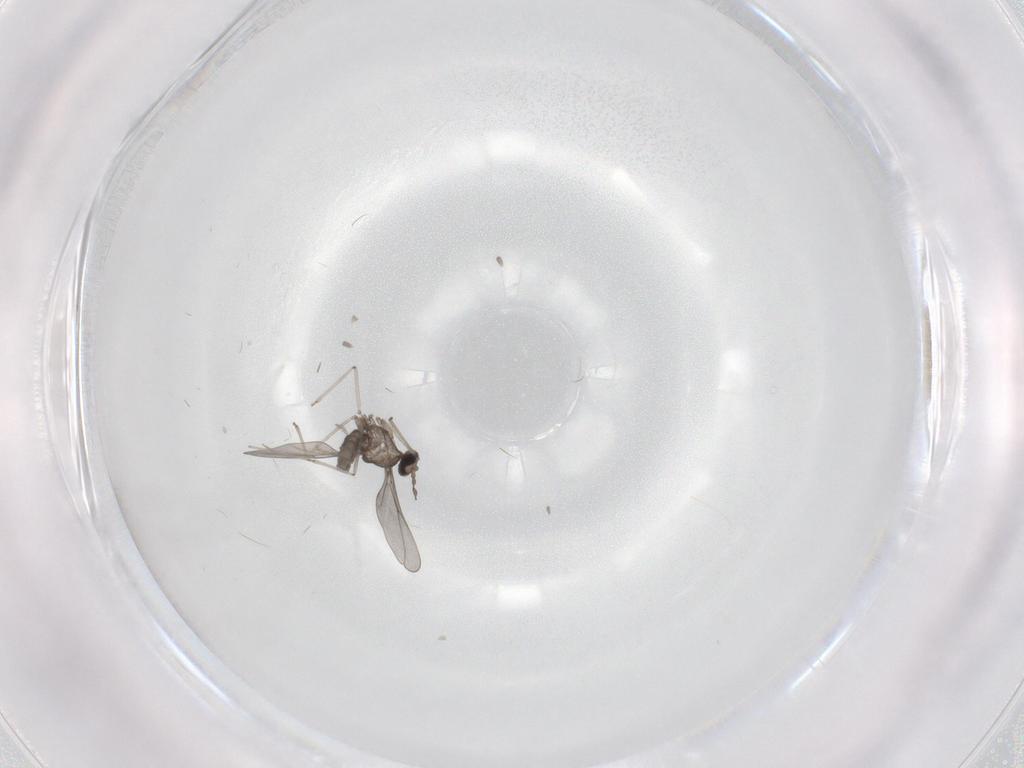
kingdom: Animalia
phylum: Arthropoda
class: Insecta
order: Diptera
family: Cecidomyiidae
